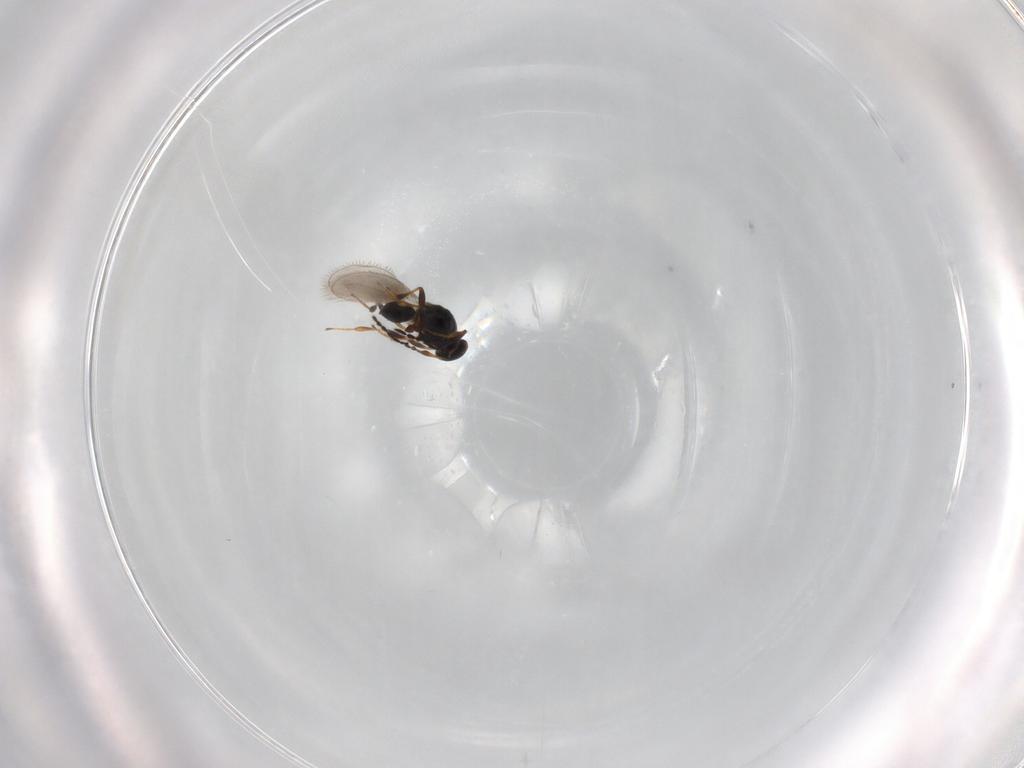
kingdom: Animalia
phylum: Arthropoda
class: Insecta
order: Hymenoptera
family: Platygastridae
